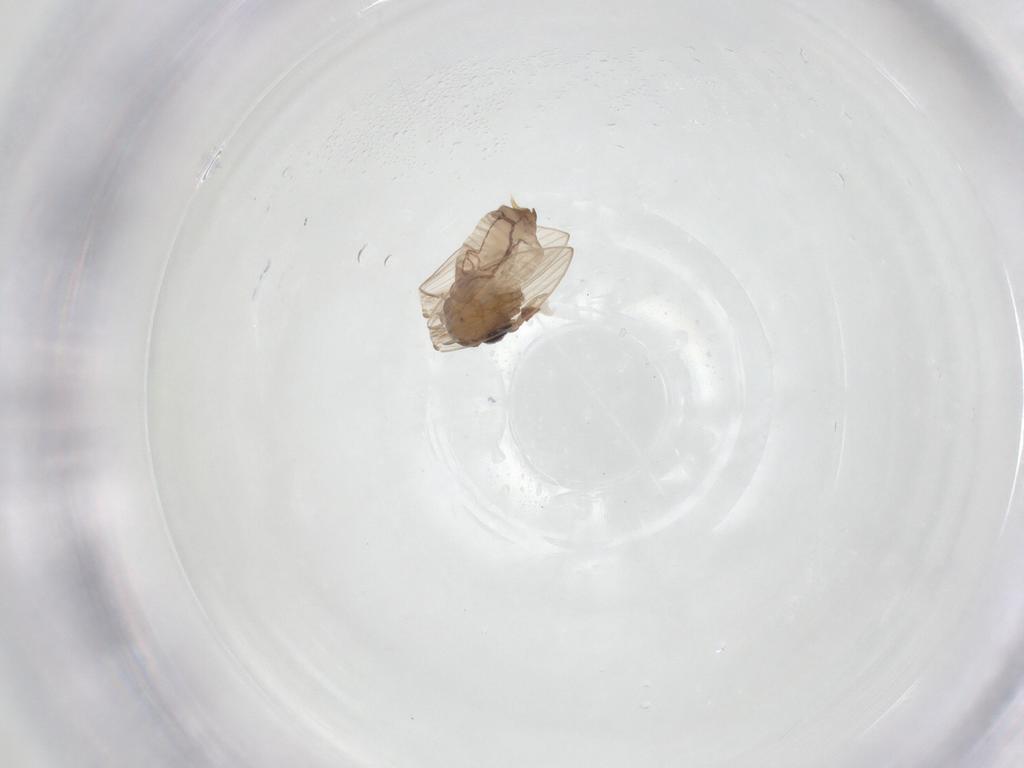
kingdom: Animalia
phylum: Arthropoda
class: Insecta
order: Diptera
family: Psychodidae
